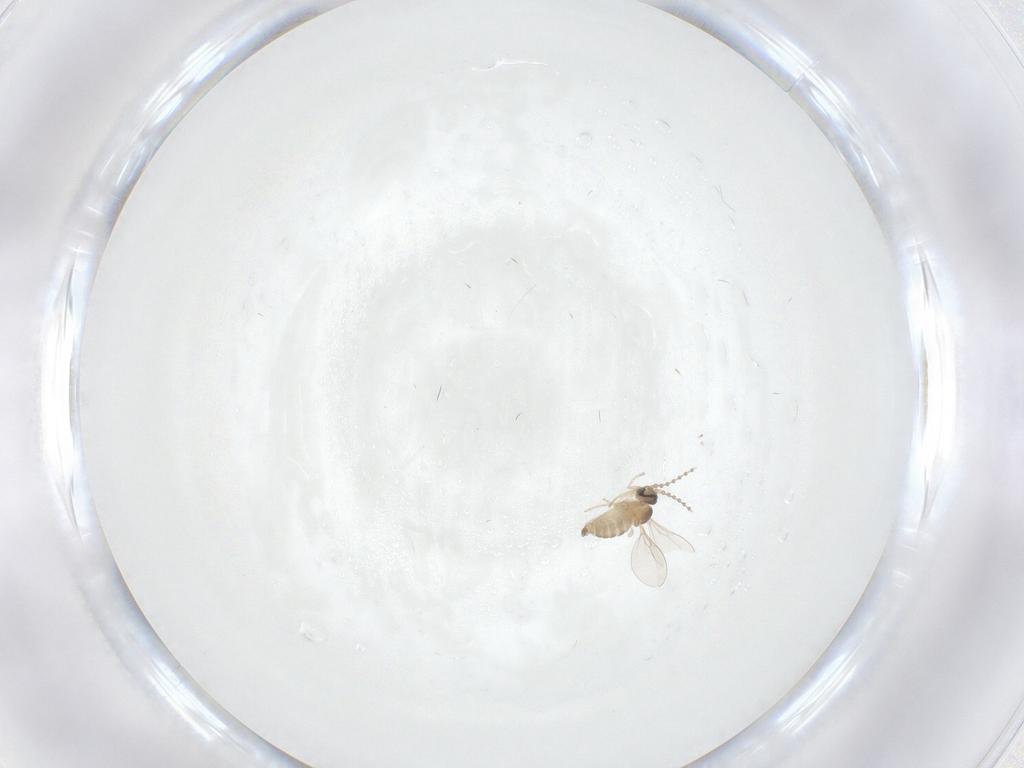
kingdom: Animalia
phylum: Arthropoda
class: Insecta
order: Diptera
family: Cecidomyiidae
